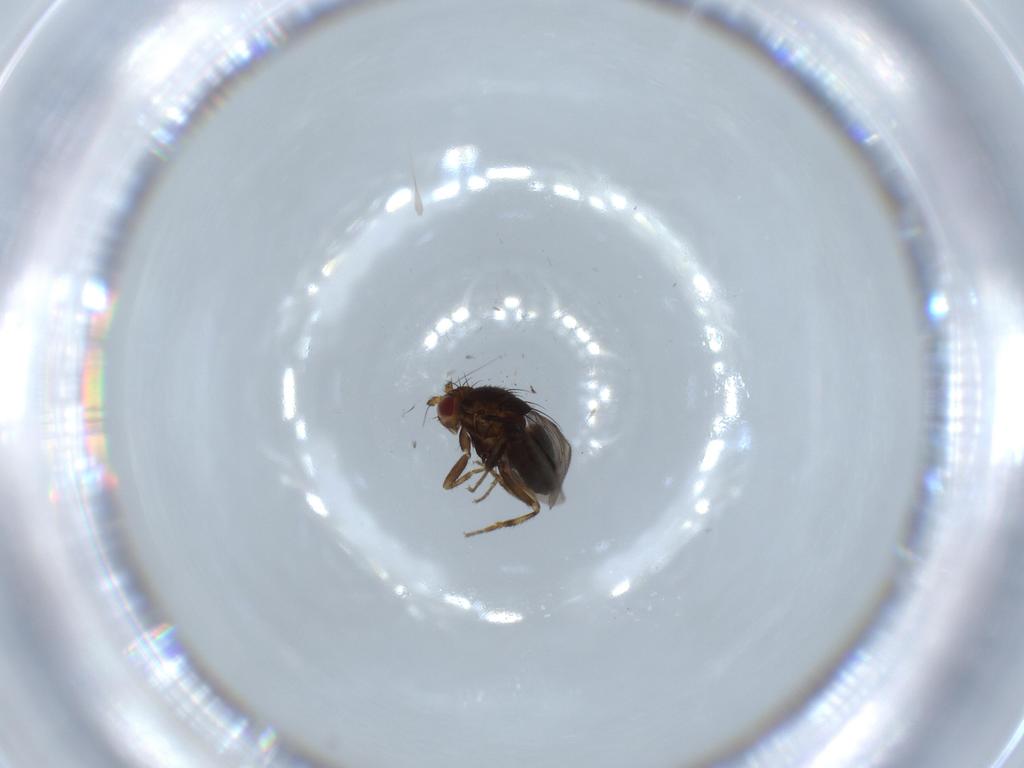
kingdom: Animalia
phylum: Arthropoda
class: Insecta
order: Diptera
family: Sphaeroceridae
